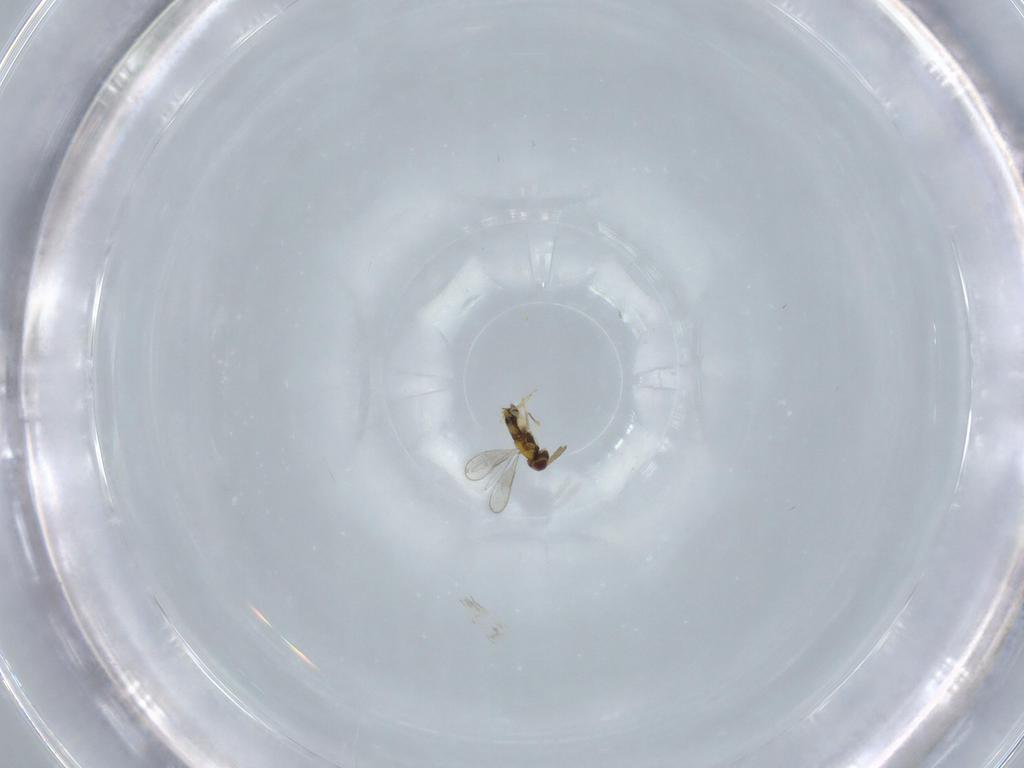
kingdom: Animalia
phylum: Arthropoda
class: Insecta
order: Hymenoptera
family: Aphelinidae
